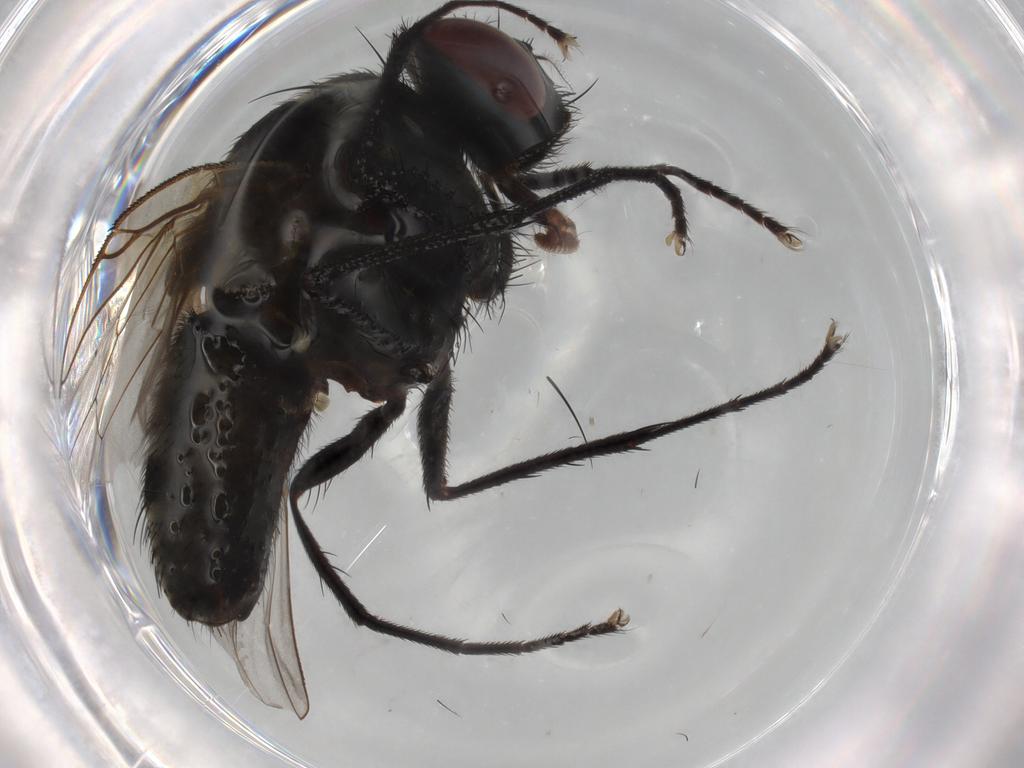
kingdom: Animalia
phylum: Arthropoda
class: Insecta
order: Diptera
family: Muscidae
